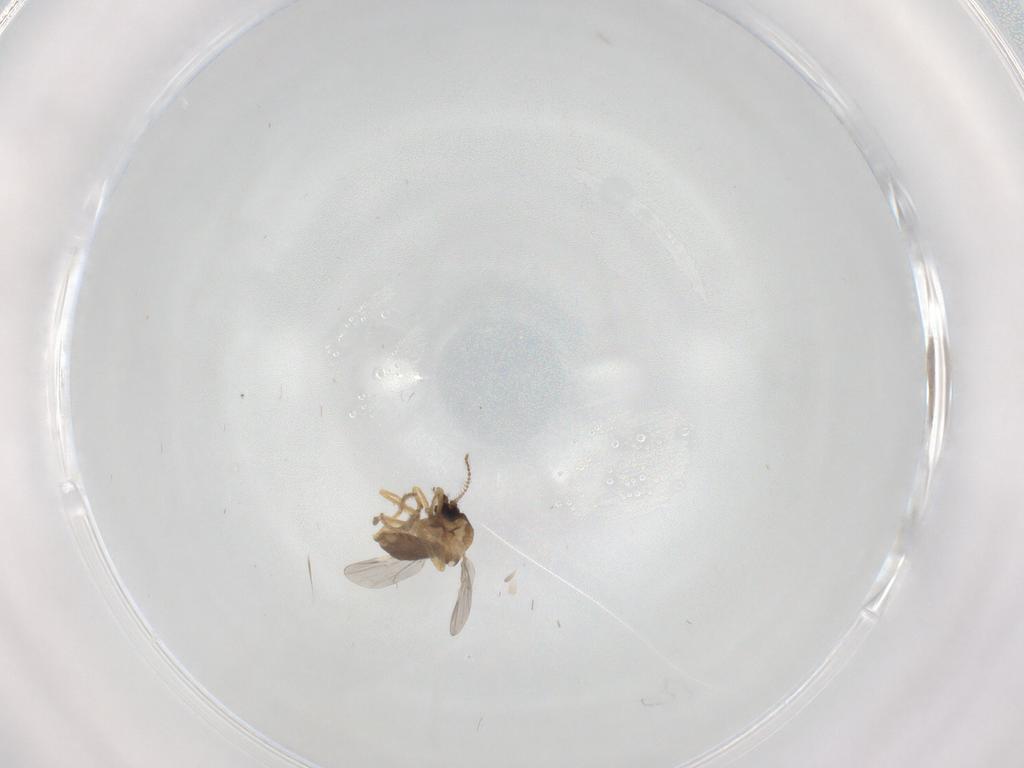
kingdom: Animalia
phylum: Arthropoda
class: Insecta
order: Diptera
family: Ceratopogonidae
